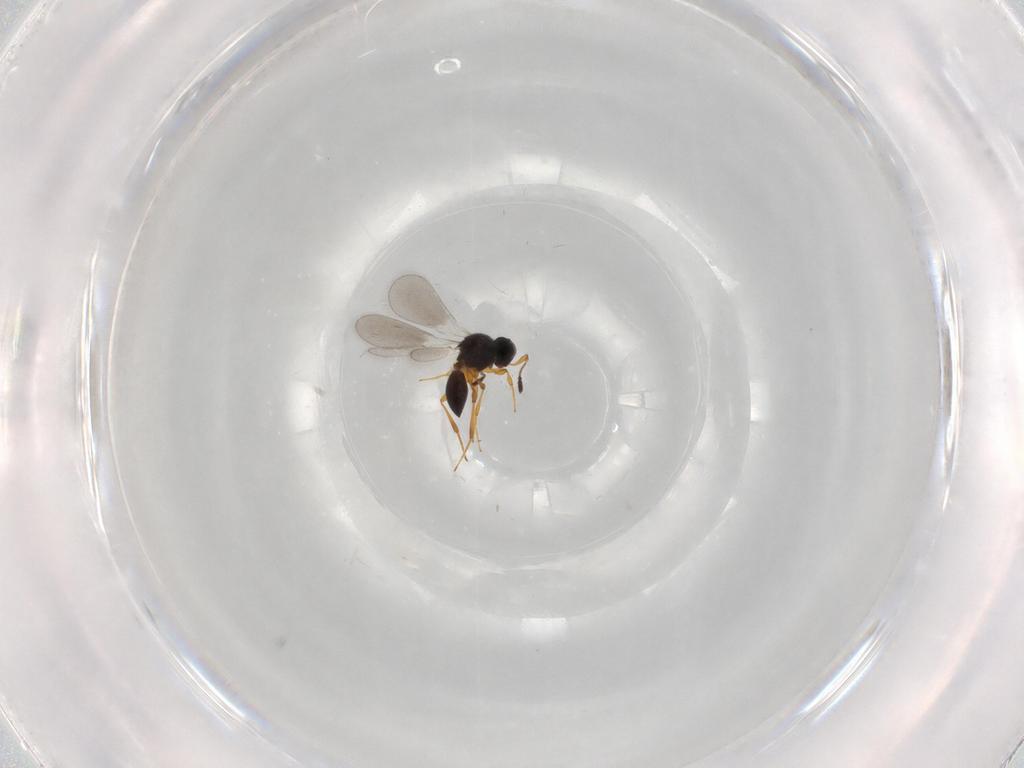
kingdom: Animalia
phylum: Arthropoda
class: Insecta
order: Hymenoptera
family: Platygastridae
